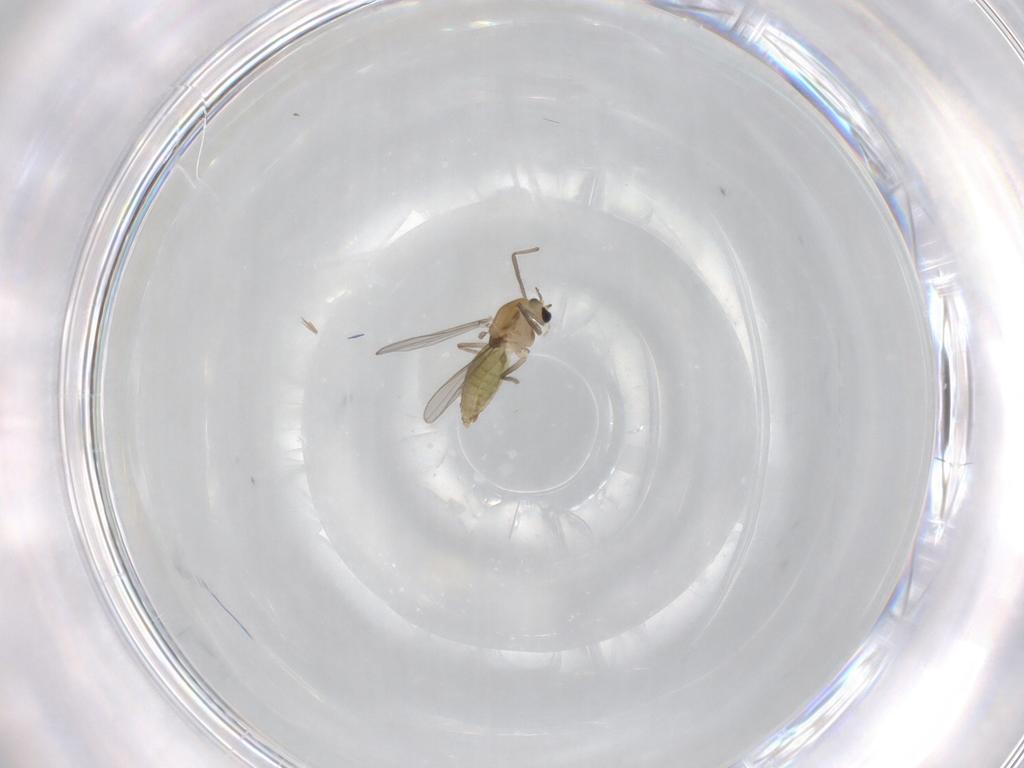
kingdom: Animalia
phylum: Arthropoda
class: Insecta
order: Diptera
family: Chironomidae
